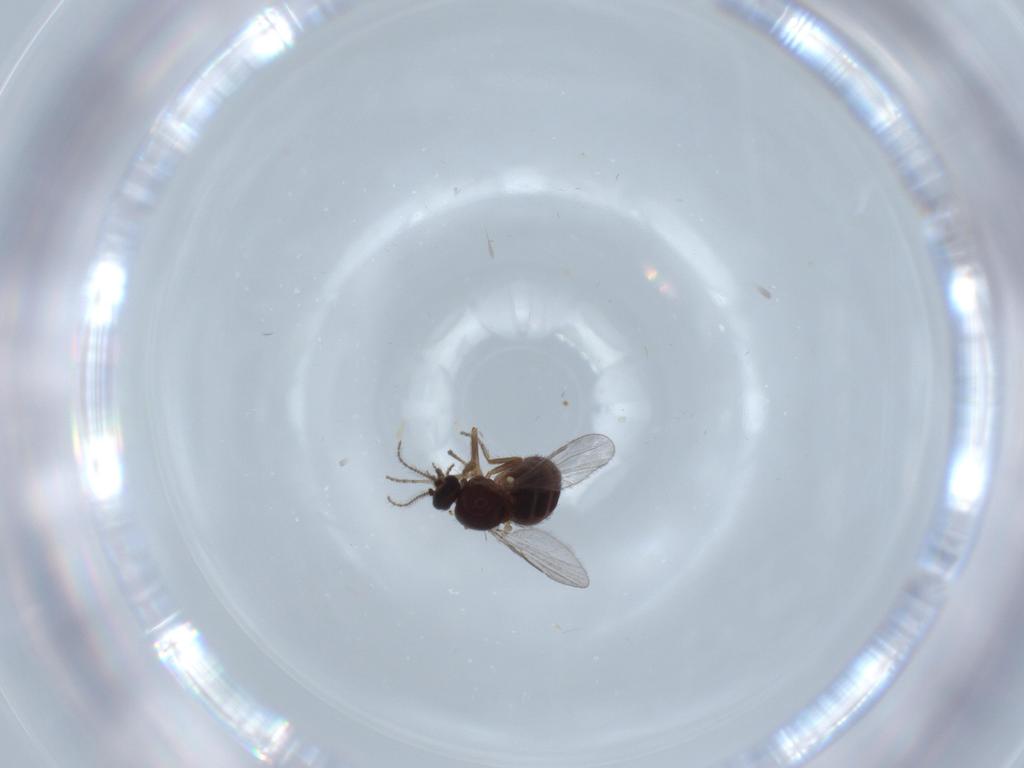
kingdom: Animalia
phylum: Arthropoda
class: Insecta
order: Diptera
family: Ceratopogonidae
